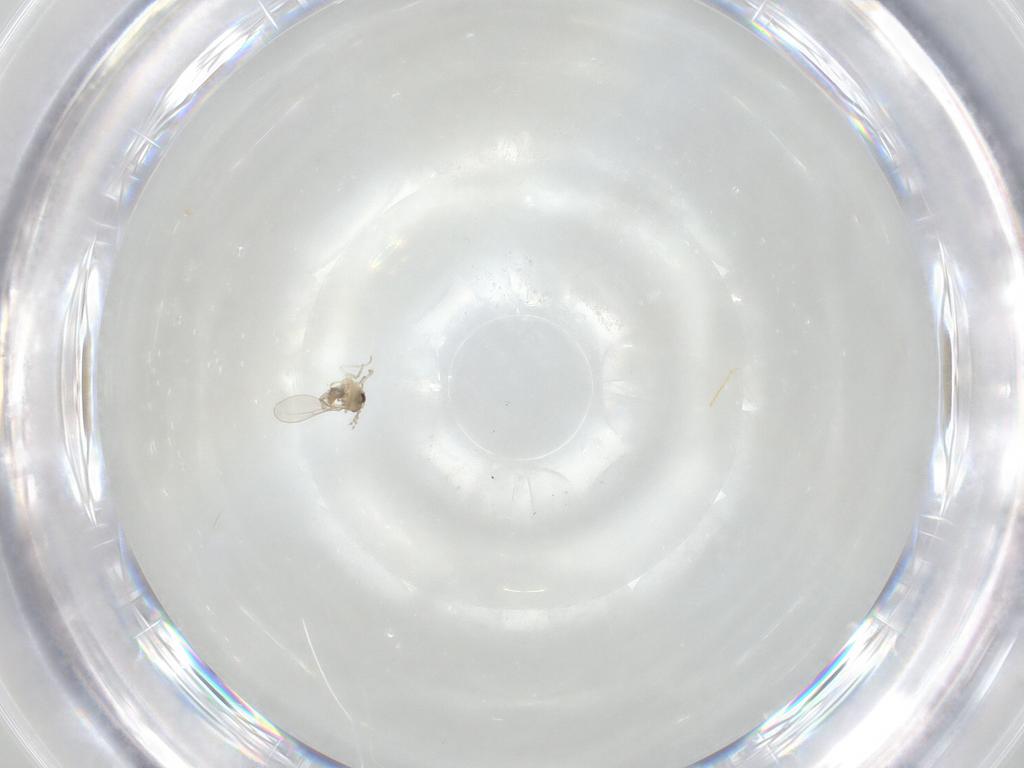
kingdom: Animalia
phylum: Arthropoda
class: Insecta
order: Diptera
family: Cecidomyiidae
